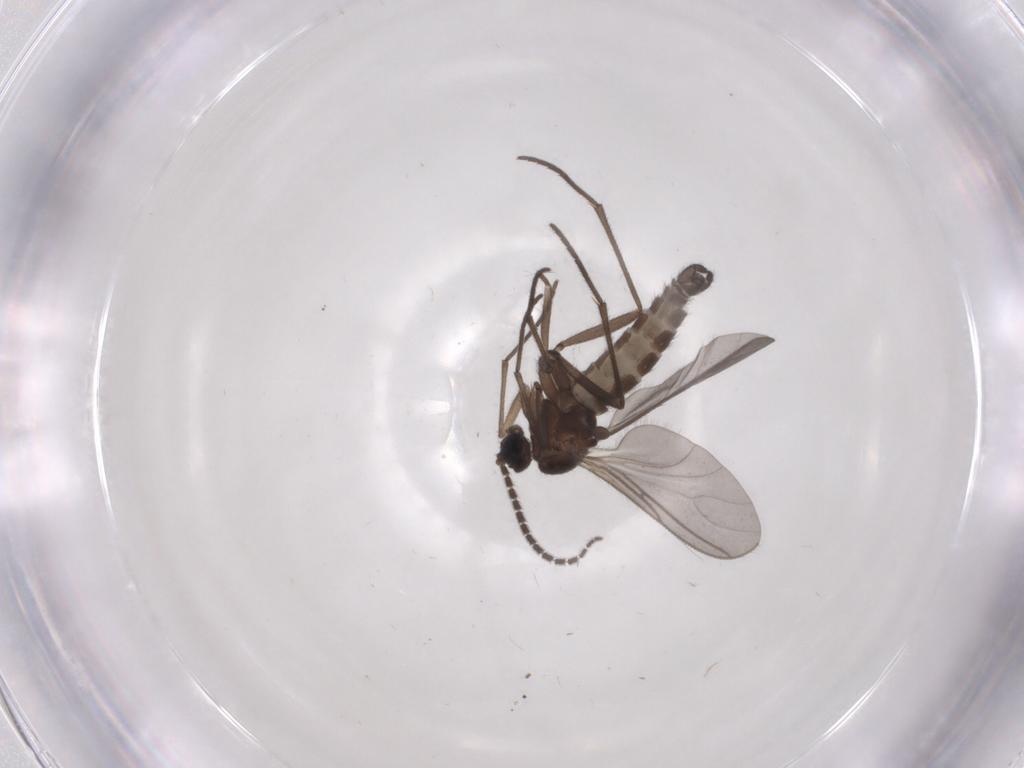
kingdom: Animalia
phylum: Arthropoda
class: Insecta
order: Diptera
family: Sciaridae
